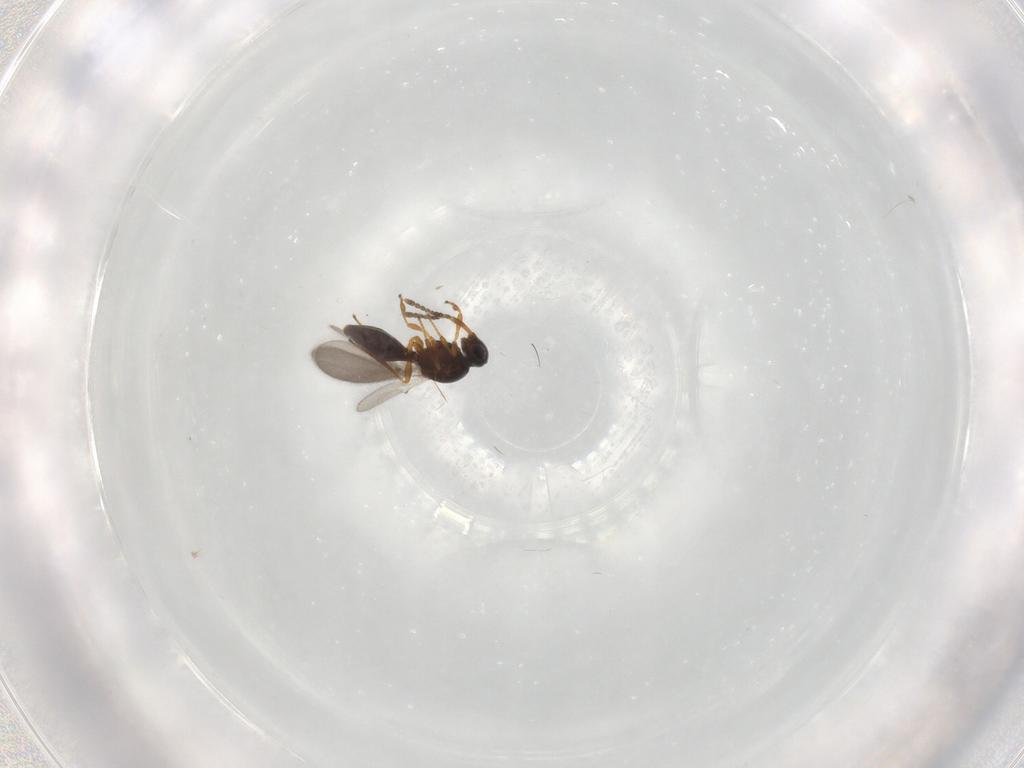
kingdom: Animalia
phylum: Arthropoda
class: Insecta
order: Hymenoptera
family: Platygastridae
